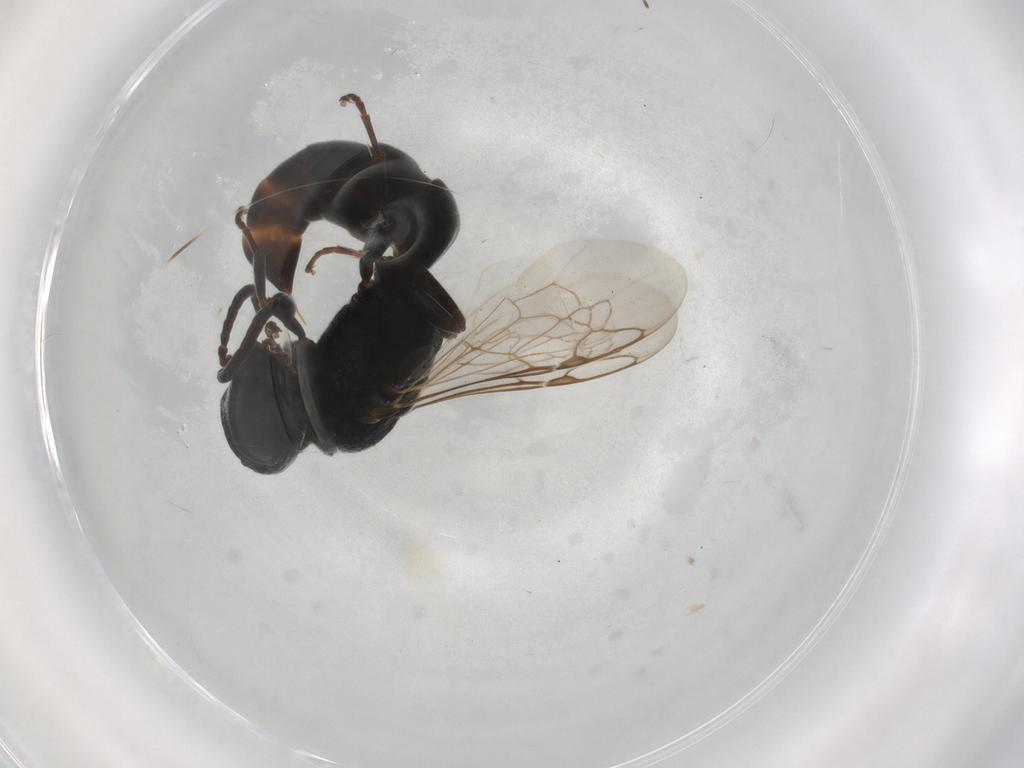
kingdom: Animalia
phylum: Arthropoda
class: Insecta
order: Hymenoptera
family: Crabronidae
